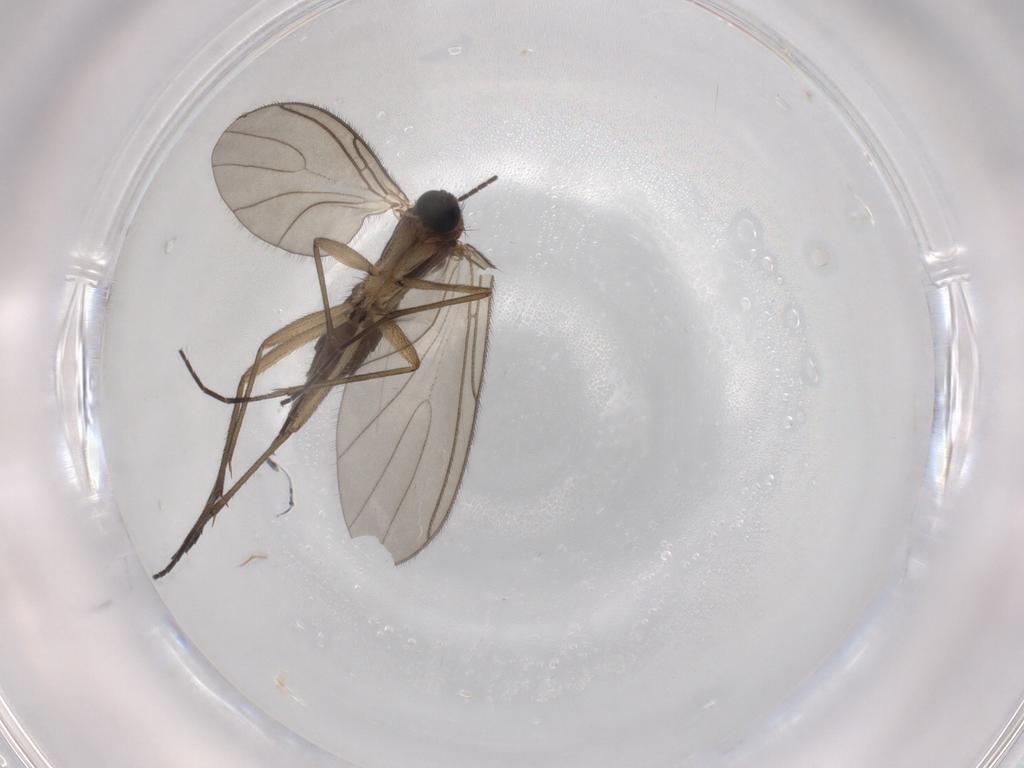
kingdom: Animalia
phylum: Arthropoda
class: Insecta
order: Diptera
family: Sciaridae
